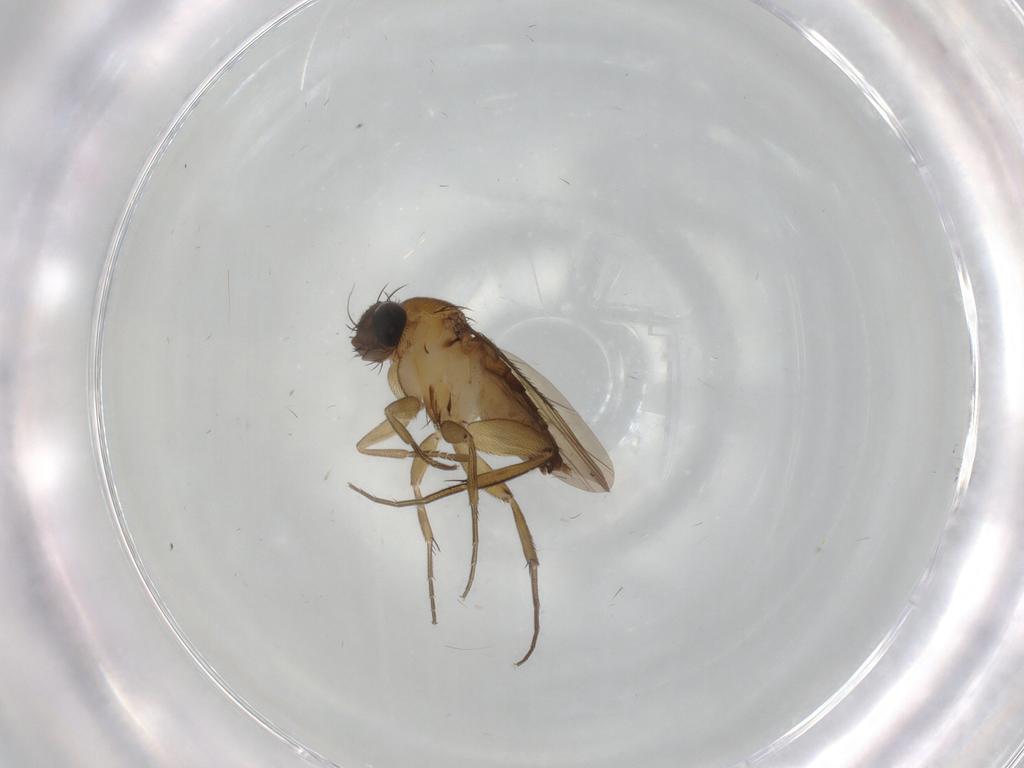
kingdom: Animalia
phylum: Arthropoda
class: Insecta
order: Diptera
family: Phoridae
